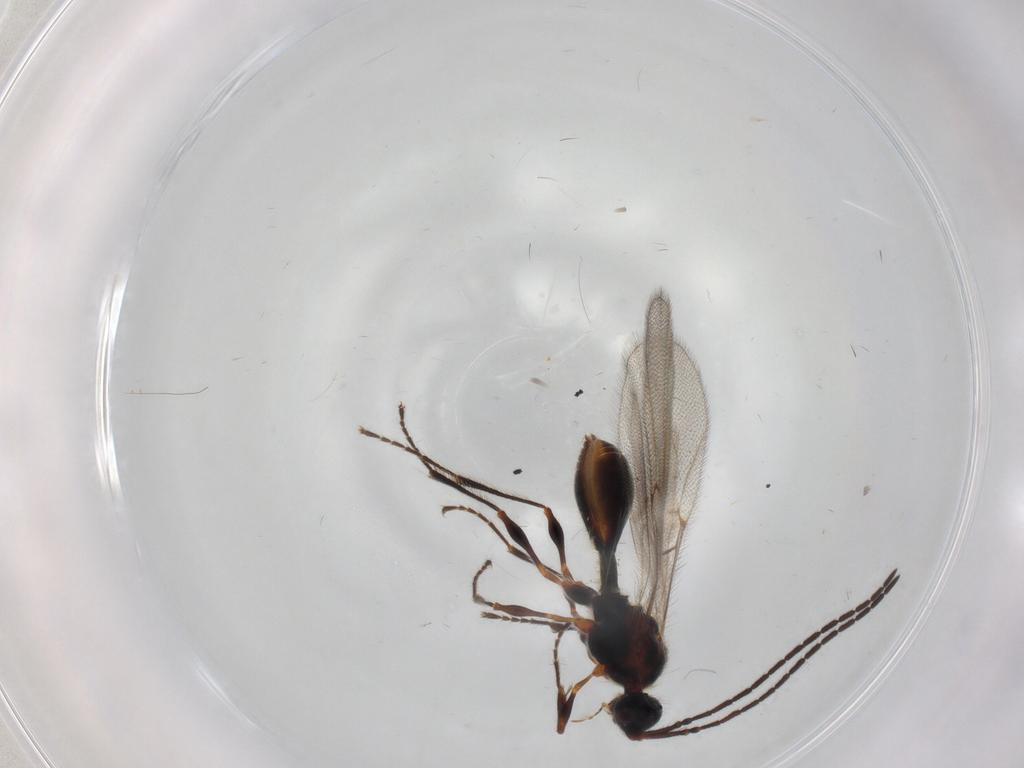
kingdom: Animalia
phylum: Arthropoda
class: Insecta
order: Hymenoptera
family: Diapriidae
